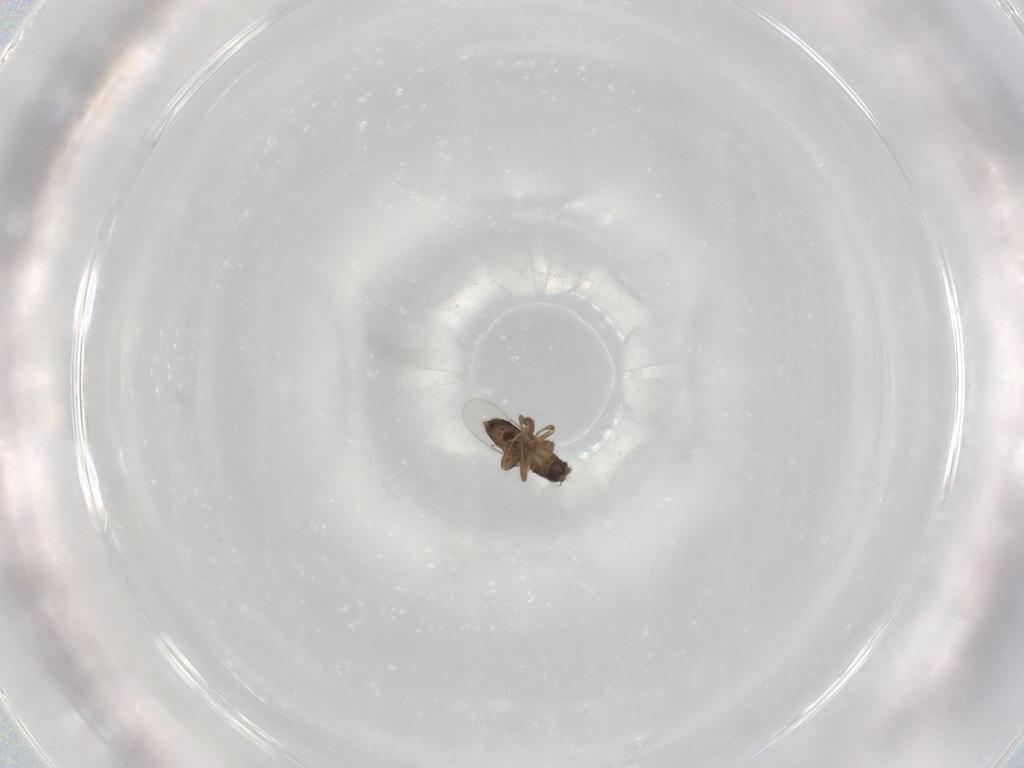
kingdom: Animalia
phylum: Arthropoda
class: Insecta
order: Diptera
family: Phoridae
